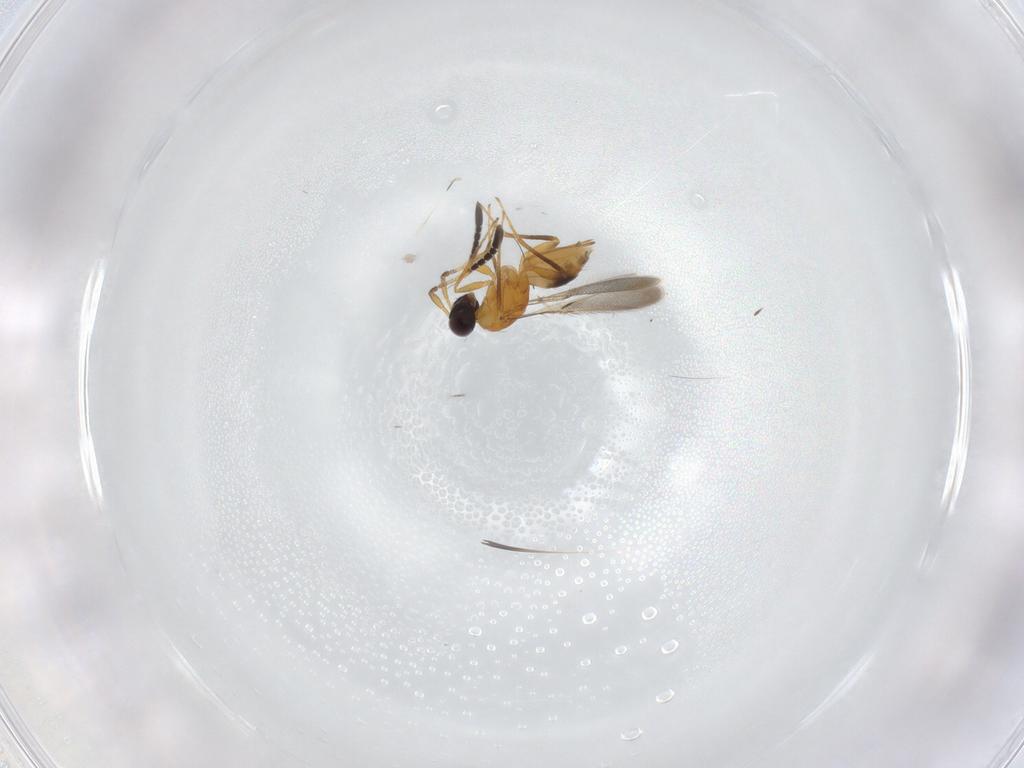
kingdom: Animalia
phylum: Arthropoda
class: Insecta
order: Hymenoptera
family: Mymaridae
